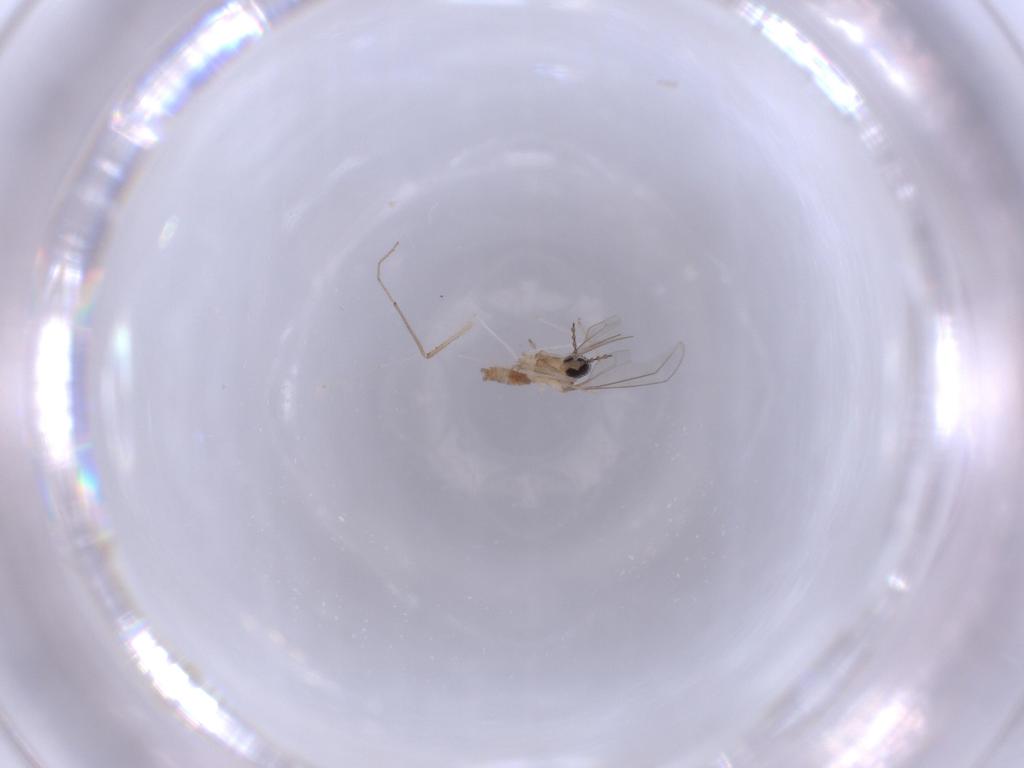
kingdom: Animalia
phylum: Arthropoda
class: Insecta
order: Diptera
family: Cecidomyiidae
